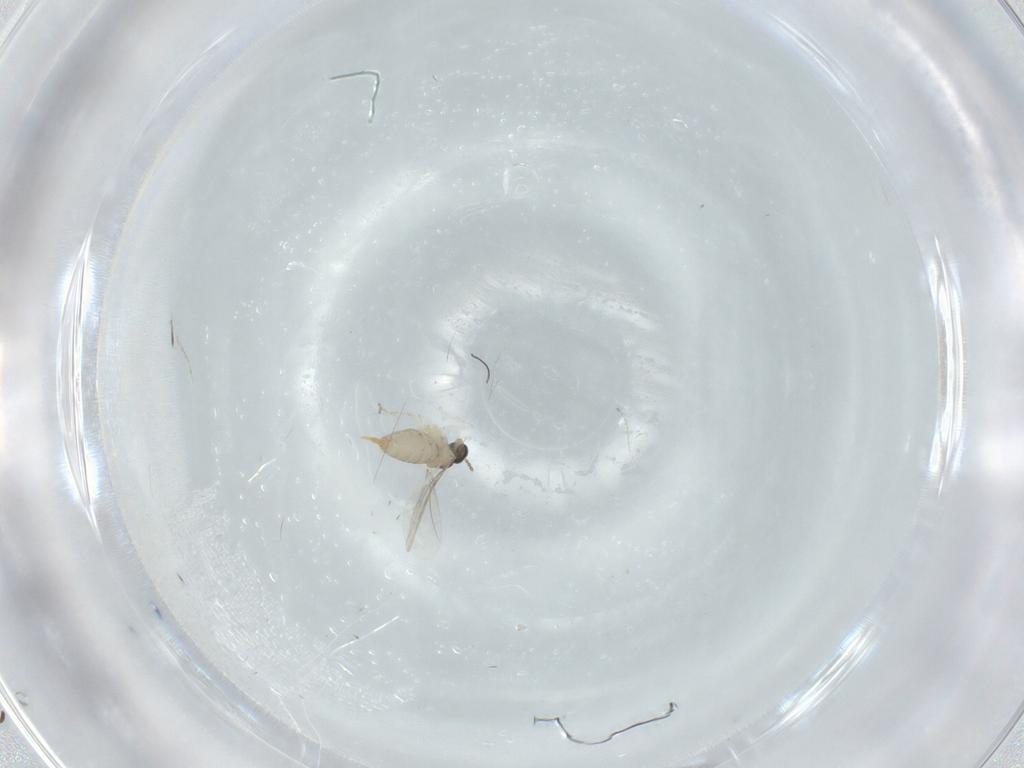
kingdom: Animalia
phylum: Arthropoda
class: Insecta
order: Diptera
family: Cecidomyiidae
